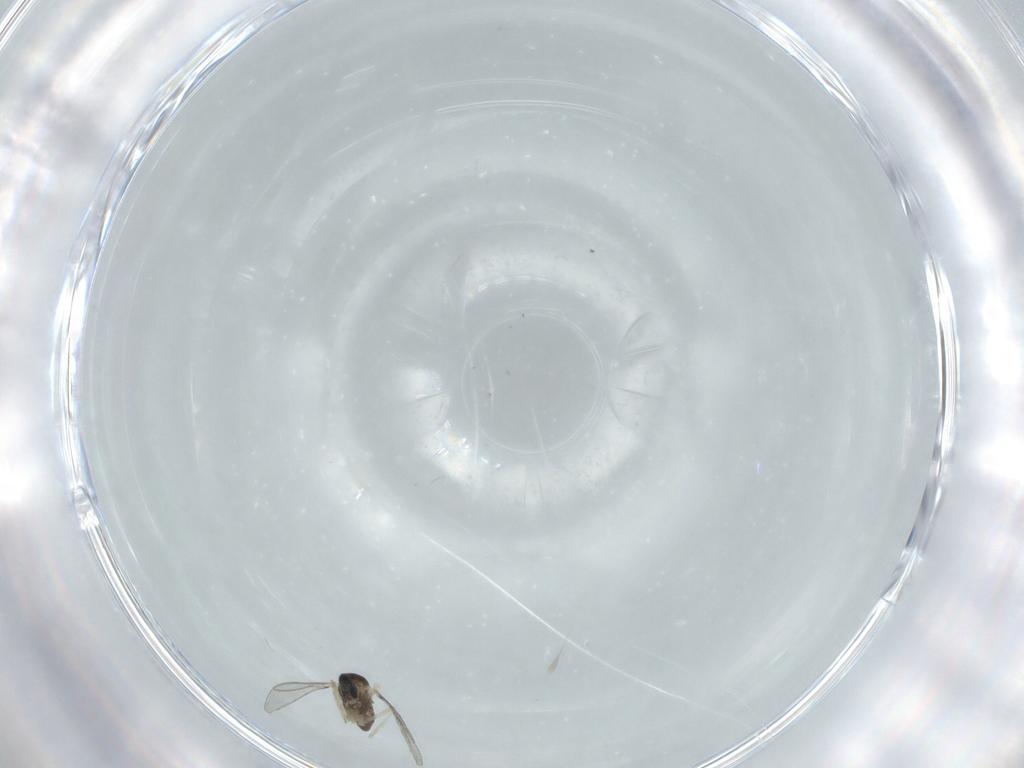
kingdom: Animalia
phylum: Arthropoda
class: Insecta
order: Diptera
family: Cecidomyiidae
